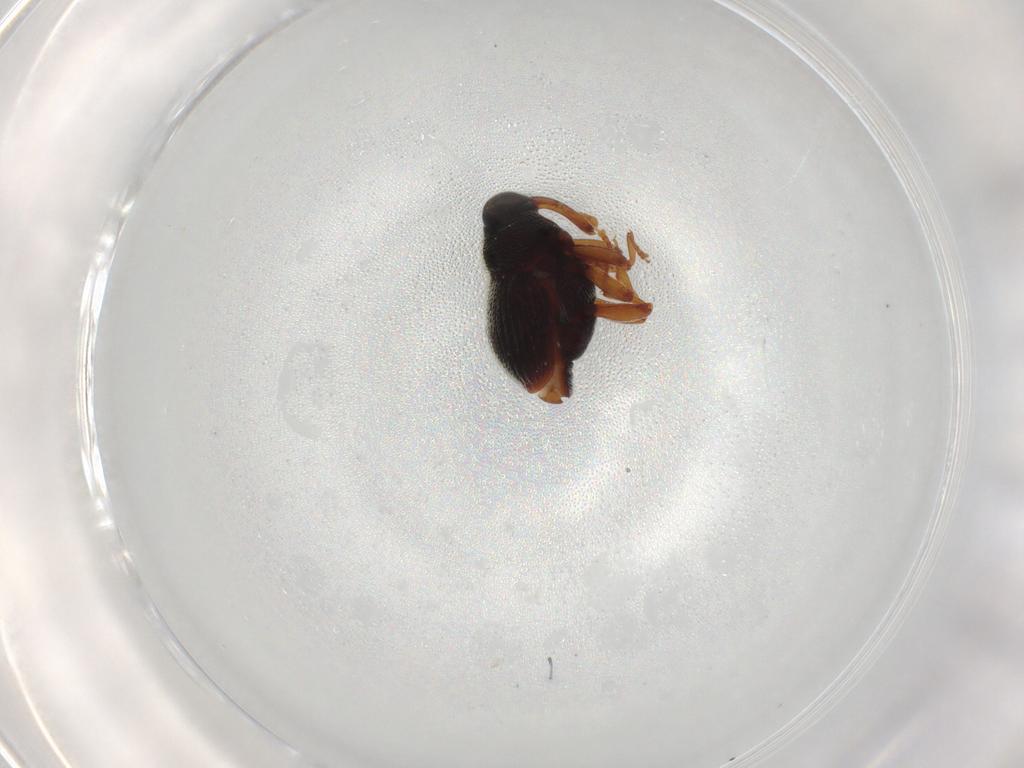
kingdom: Animalia
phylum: Arthropoda
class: Insecta
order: Coleoptera
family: Curculionidae
